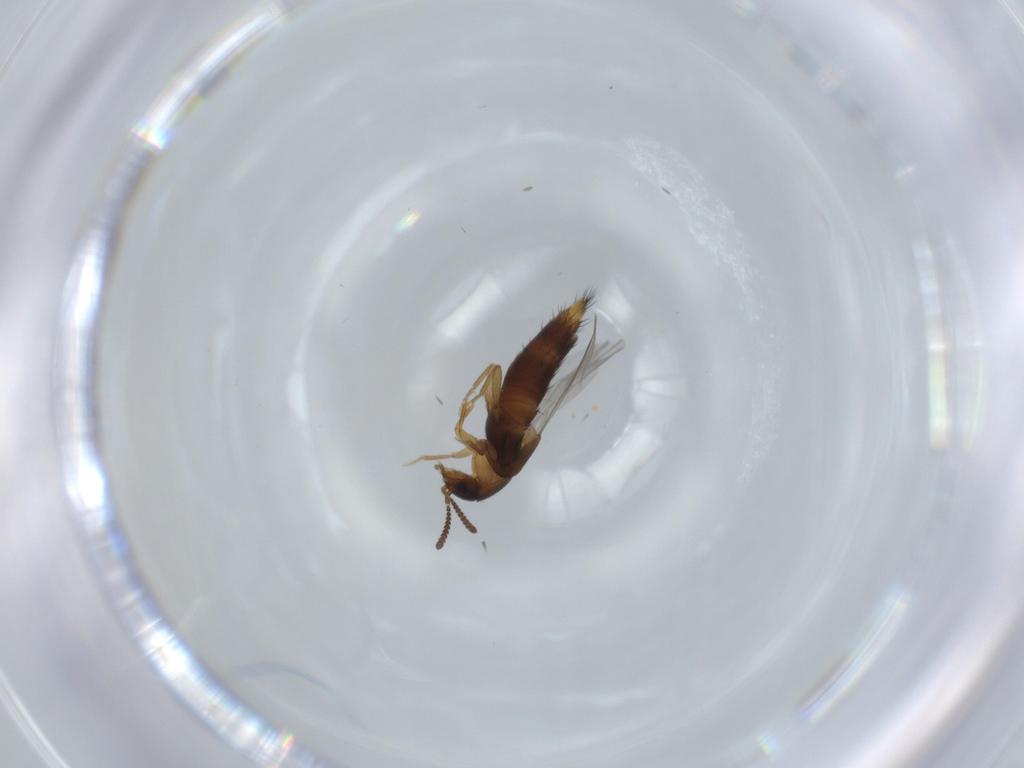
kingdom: Animalia
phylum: Arthropoda
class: Insecta
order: Coleoptera
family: Staphylinidae
